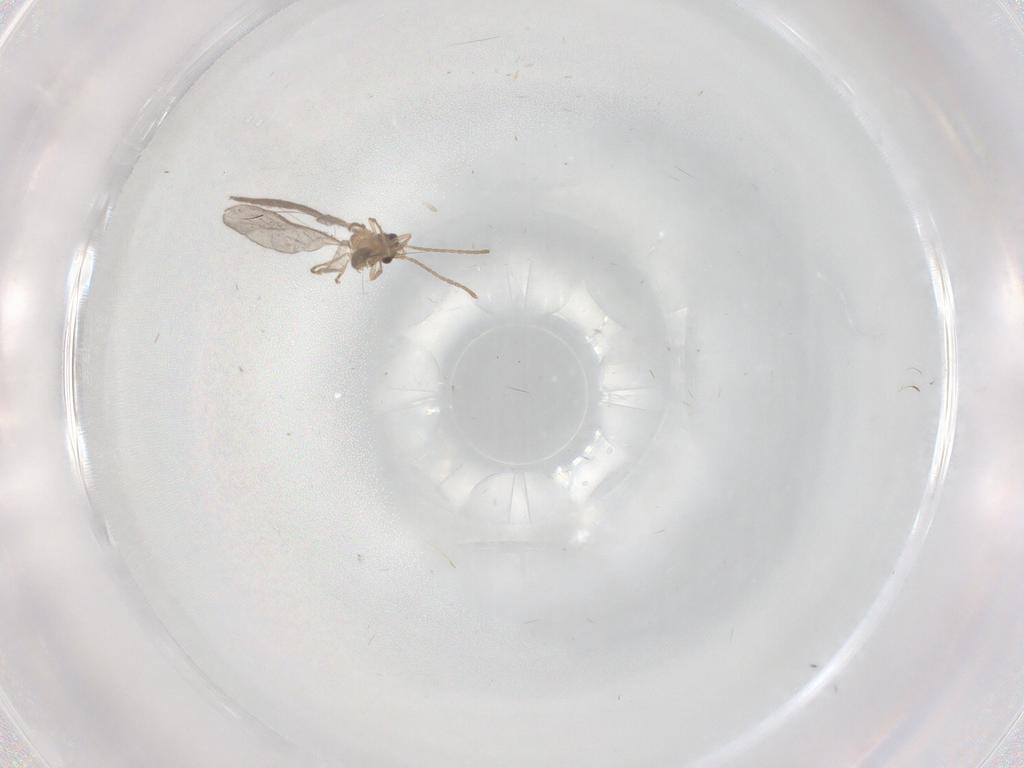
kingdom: Animalia
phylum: Arthropoda
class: Insecta
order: Hymenoptera
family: Formicidae
